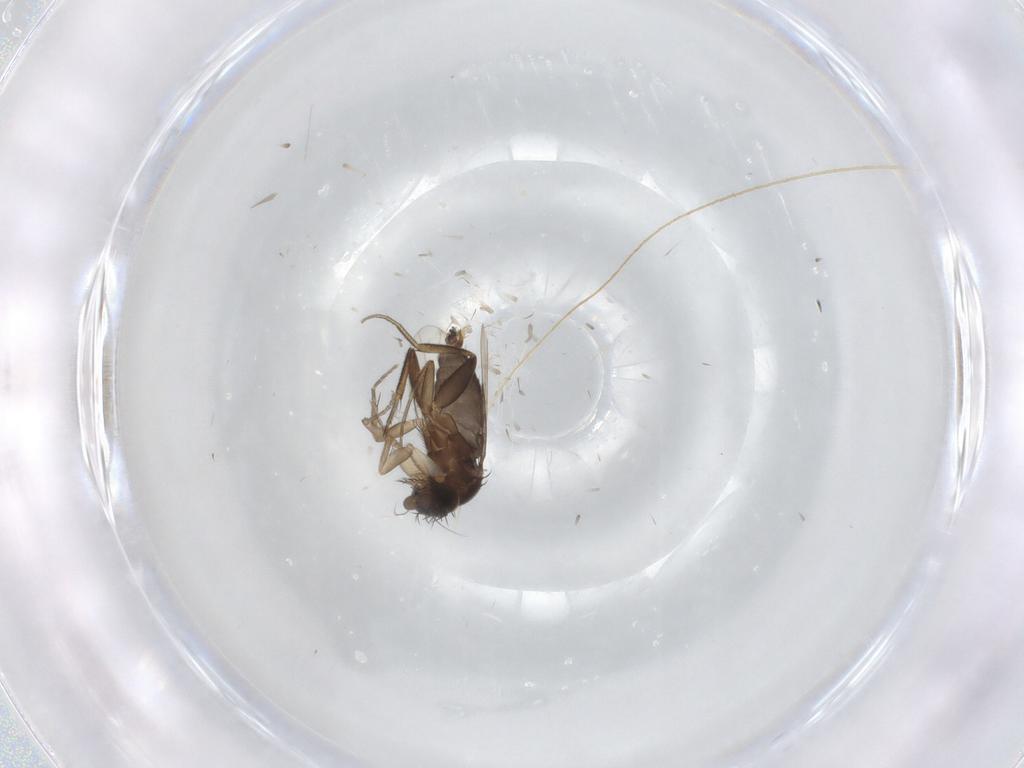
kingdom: Animalia
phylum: Arthropoda
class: Insecta
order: Diptera
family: Phoridae
